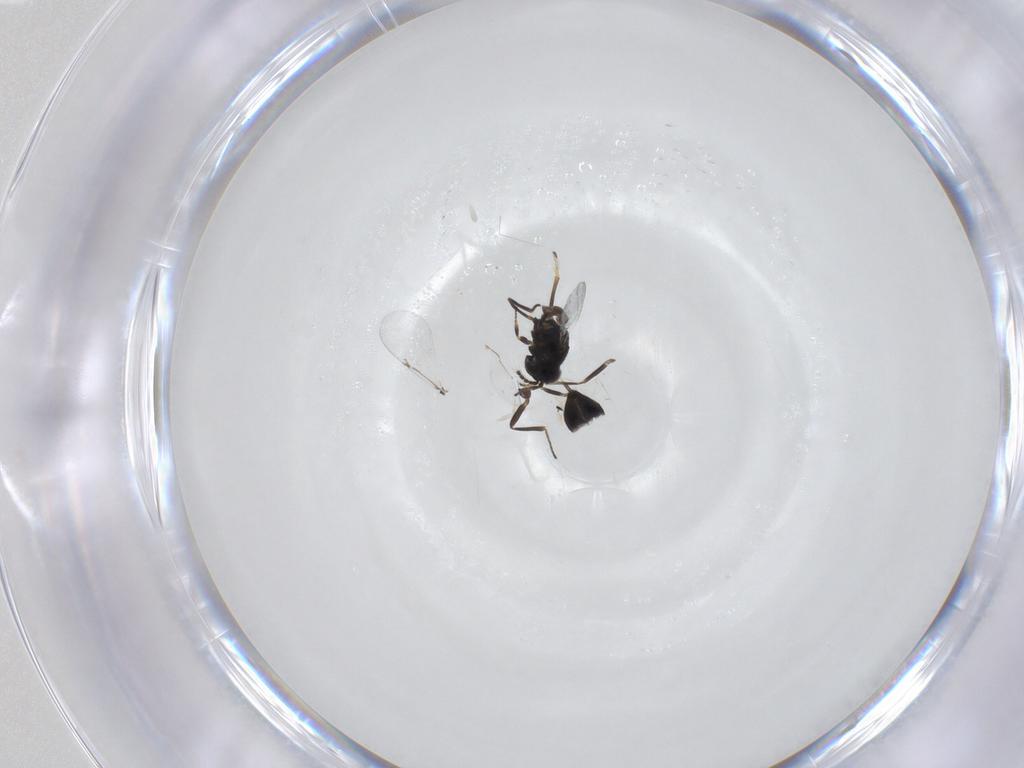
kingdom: Animalia
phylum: Arthropoda
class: Insecta
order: Hymenoptera
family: Encyrtidae
